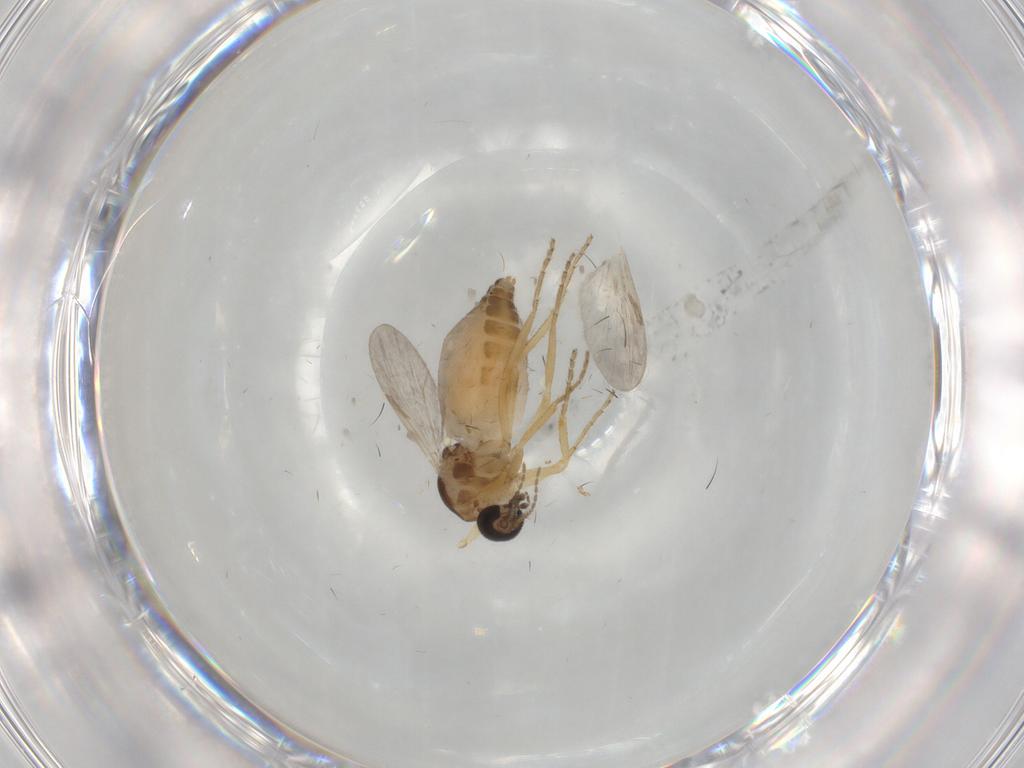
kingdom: Animalia
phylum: Arthropoda
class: Insecta
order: Diptera
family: Ceratopogonidae
